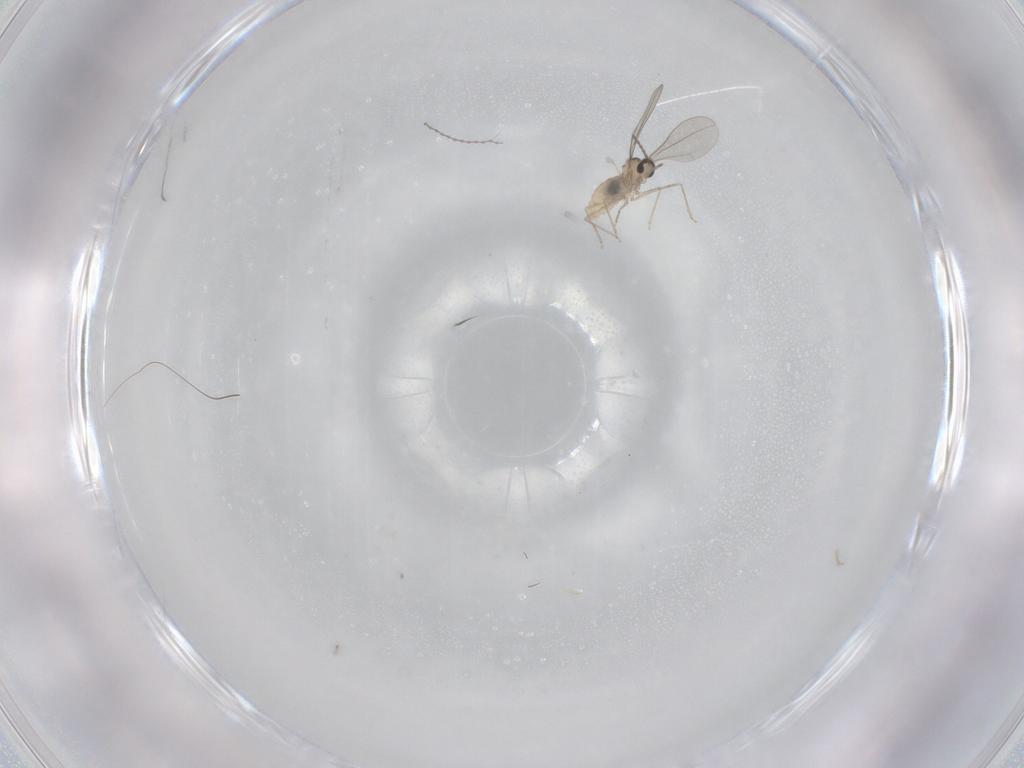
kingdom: Animalia
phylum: Arthropoda
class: Insecta
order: Diptera
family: Cecidomyiidae
